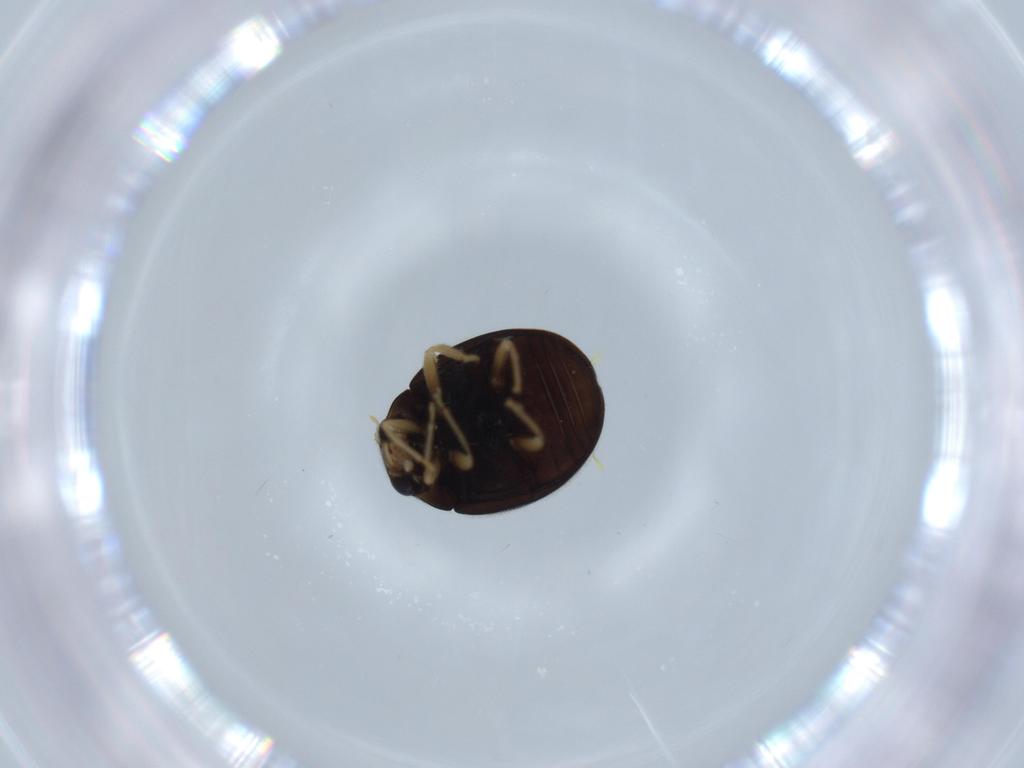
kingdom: Animalia
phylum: Arthropoda
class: Insecta
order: Coleoptera
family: Coccinellidae
